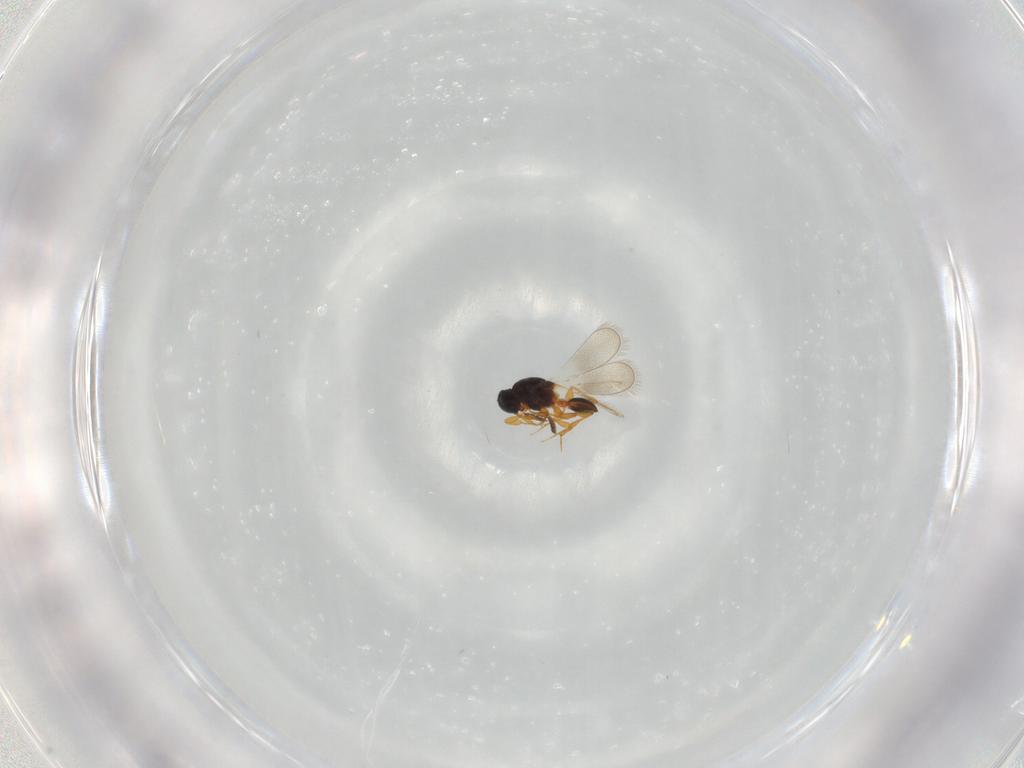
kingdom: Animalia
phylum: Arthropoda
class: Insecta
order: Hymenoptera
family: Platygastridae
